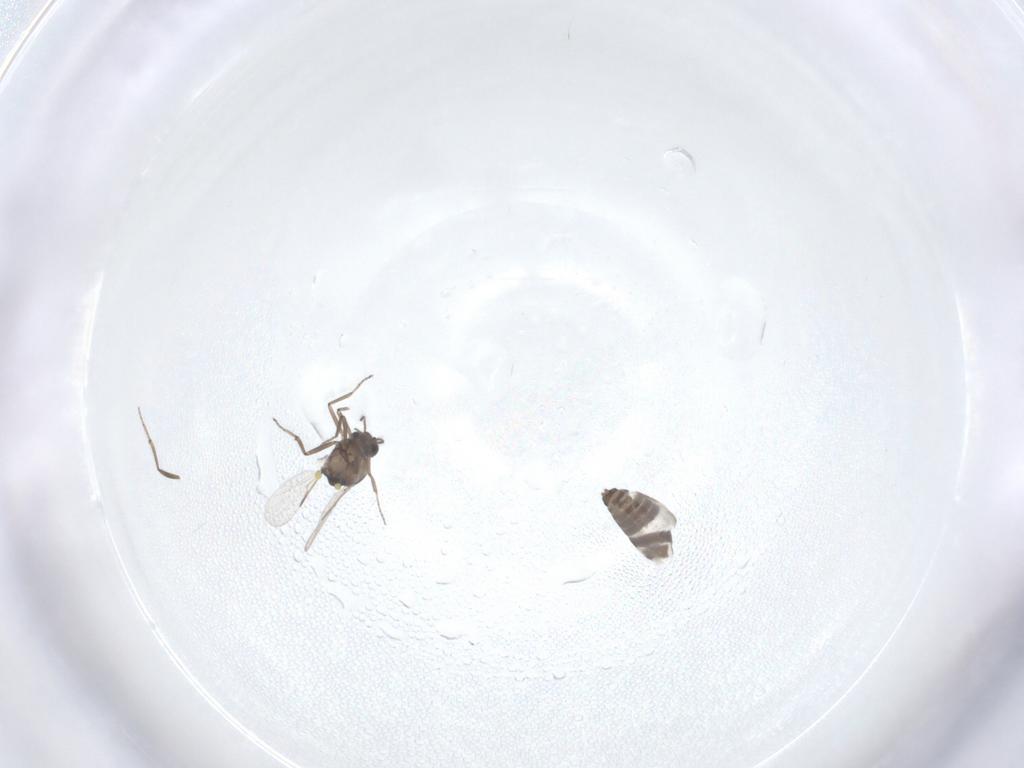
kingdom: Animalia
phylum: Arthropoda
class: Insecta
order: Diptera
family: Ceratopogonidae
